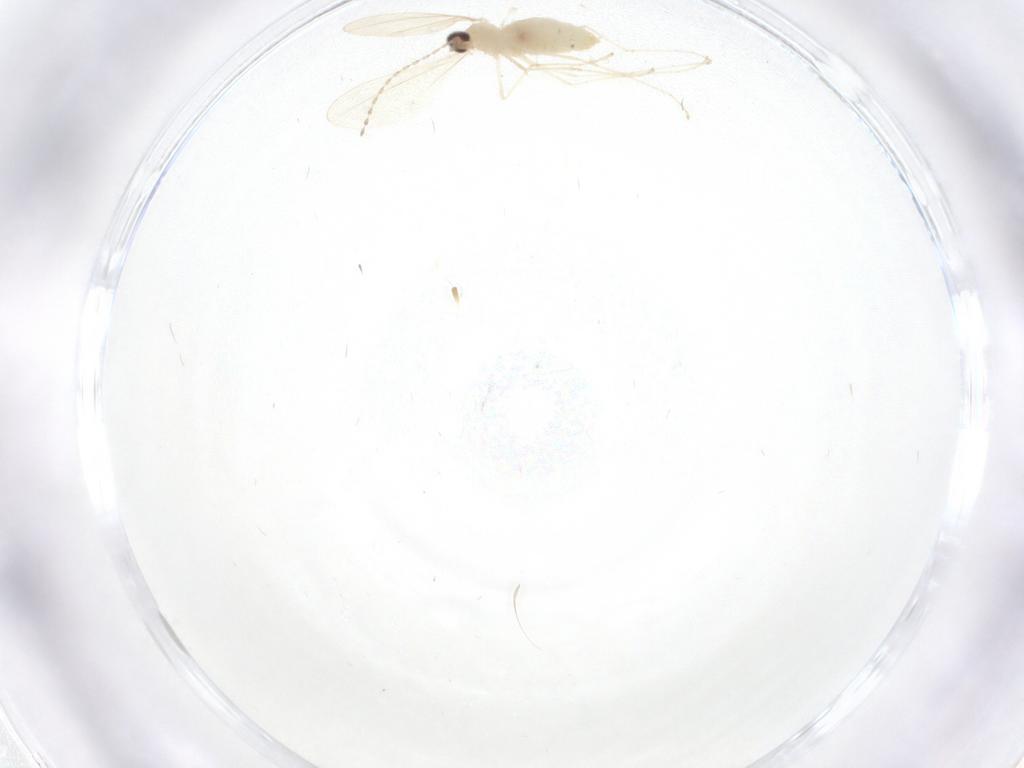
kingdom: Animalia
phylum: Arthropoda
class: Insecta
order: Diptera
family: Cecidomyiidae
